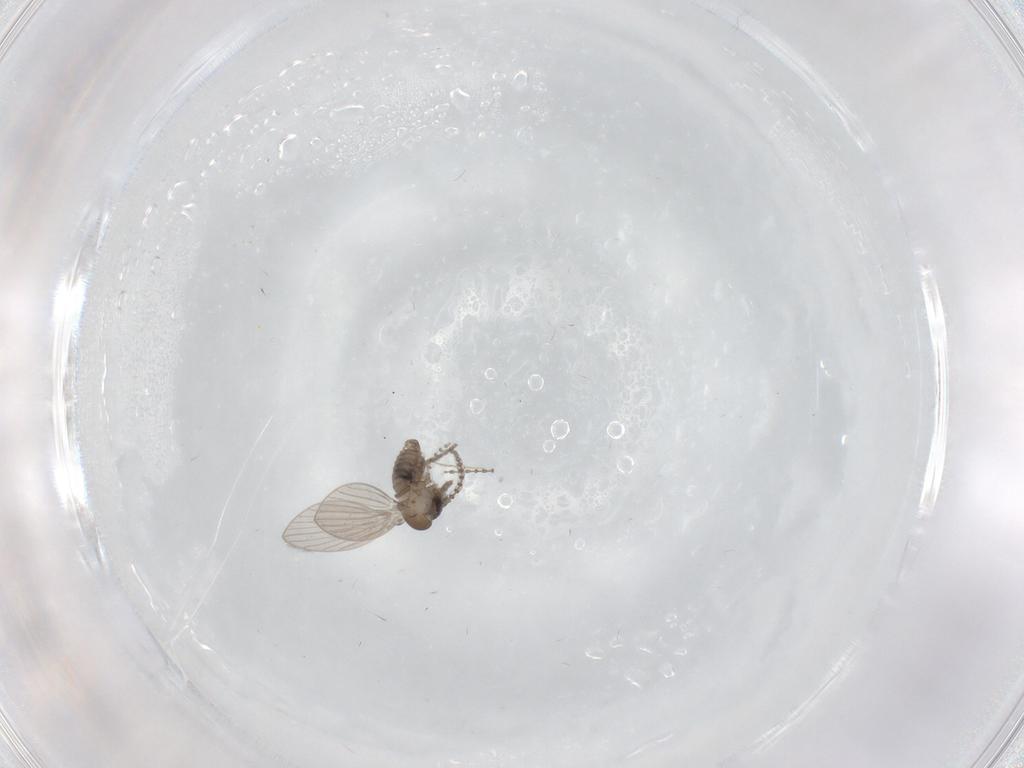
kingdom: Animalia
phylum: Arthropoda
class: Insecta
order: Diptera
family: Psychodidae
